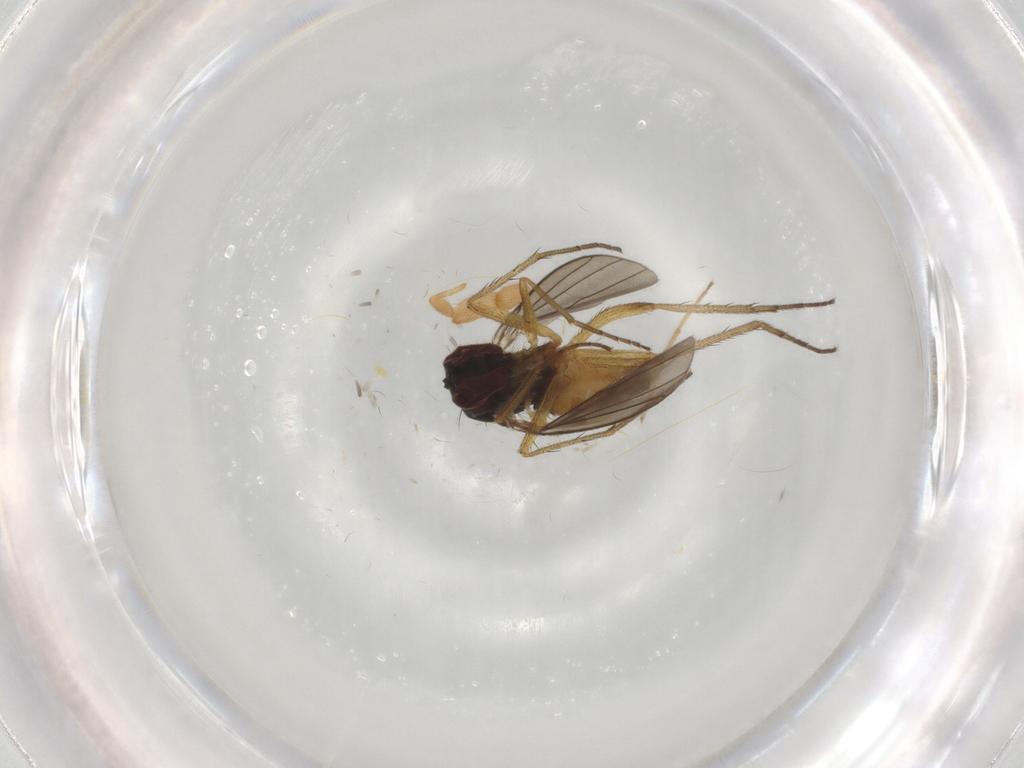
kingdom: Animalia
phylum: Arthropoda
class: Insecta
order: Diptera
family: Dolichopodidae
